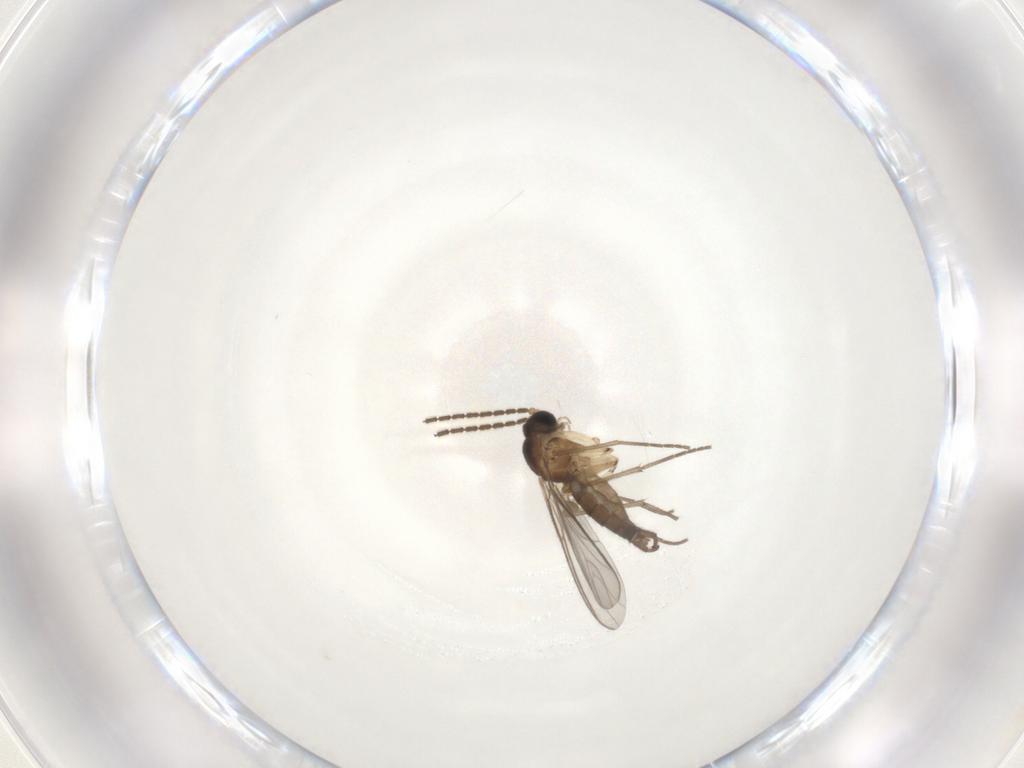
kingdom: Animalia
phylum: Arthropoda
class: Insecta
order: Diptera
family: Sciaridae
